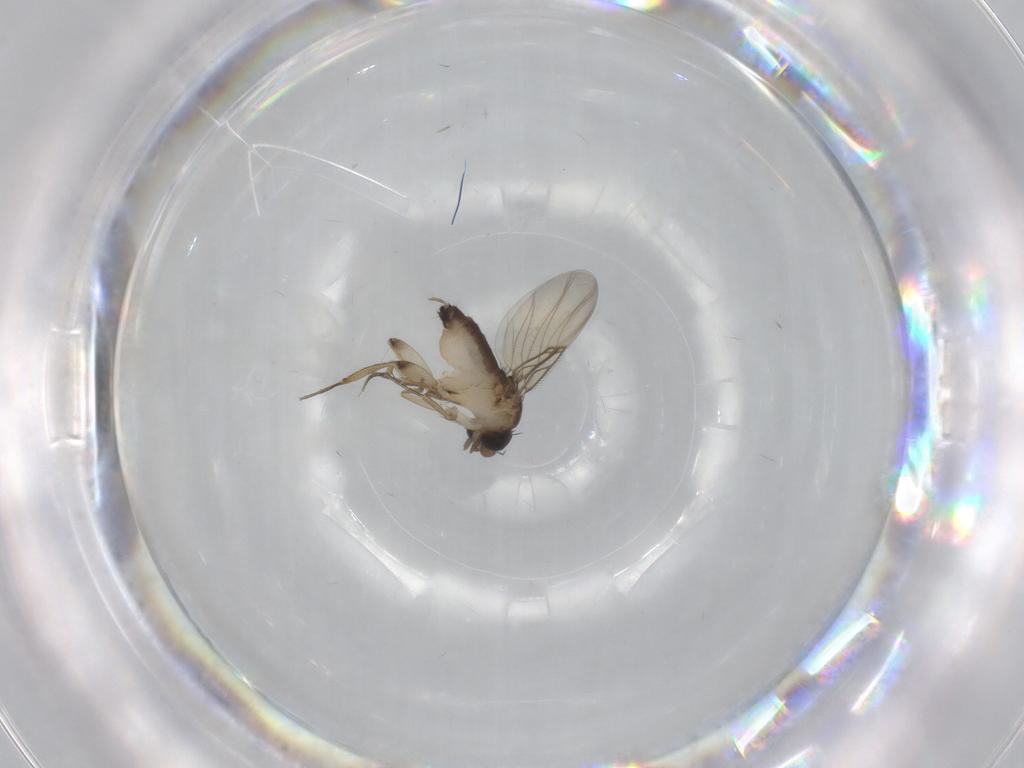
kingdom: Animalia
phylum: Arthropoda
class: Insecta
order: Diptera
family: Phoridae
